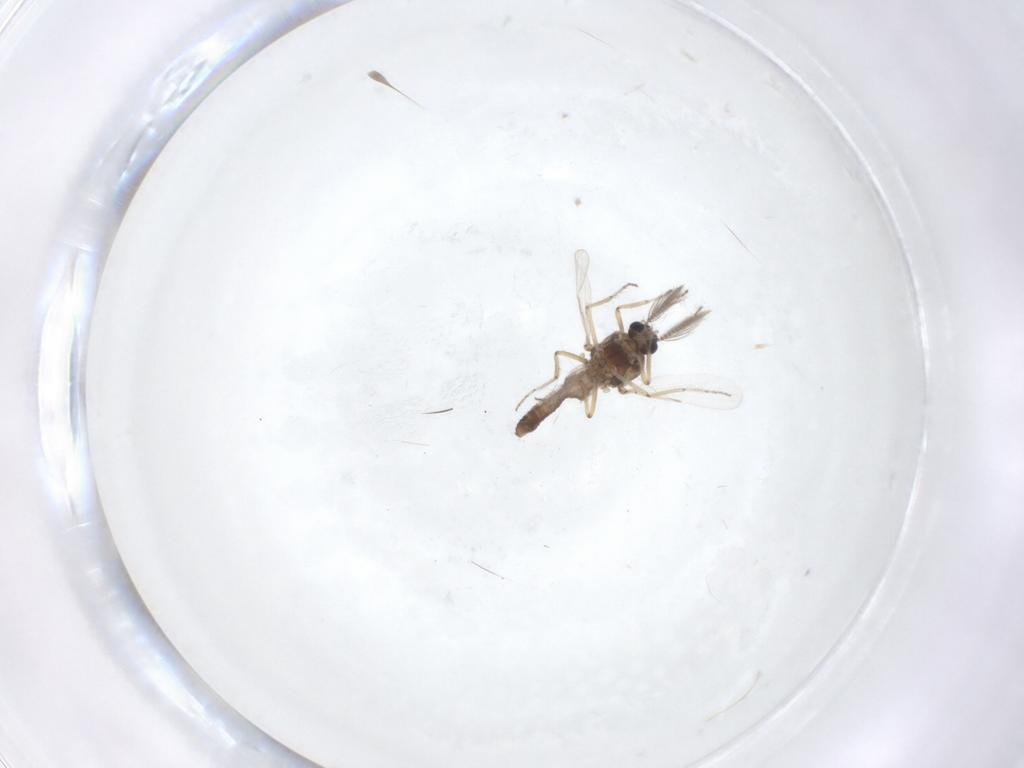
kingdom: Animalia
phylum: Arthropoda
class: Insecta
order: Diptera
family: Ceratopogonidae
